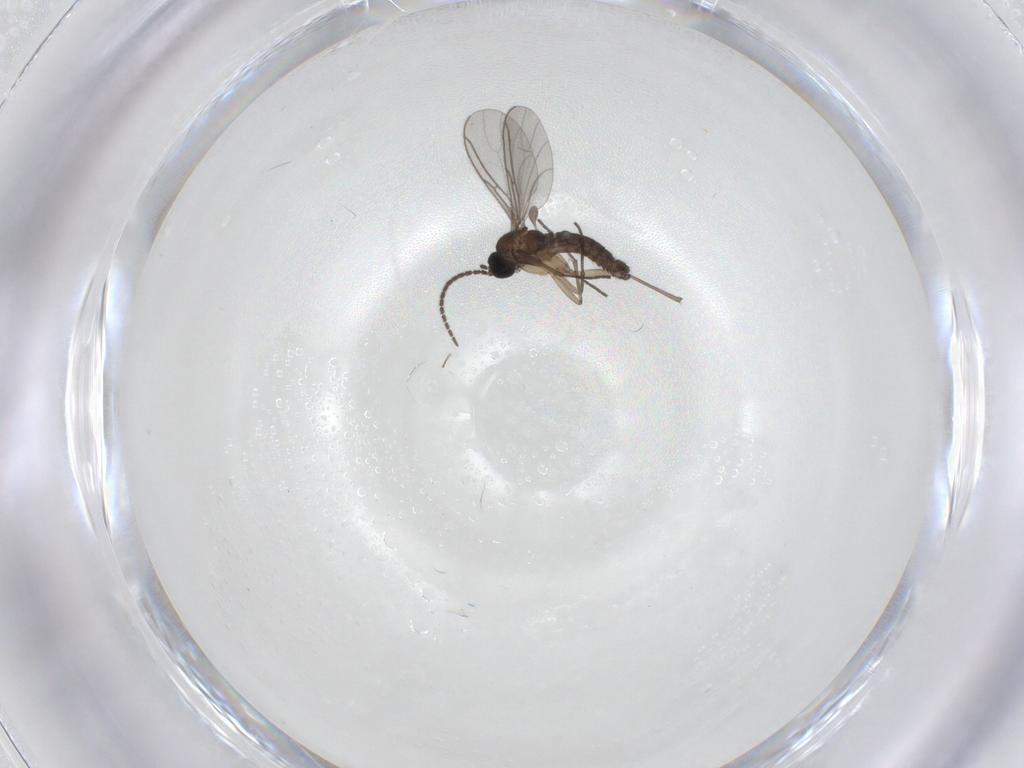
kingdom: Animalia
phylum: Arthropoda
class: Insecta
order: Diptera
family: Sciaridae
